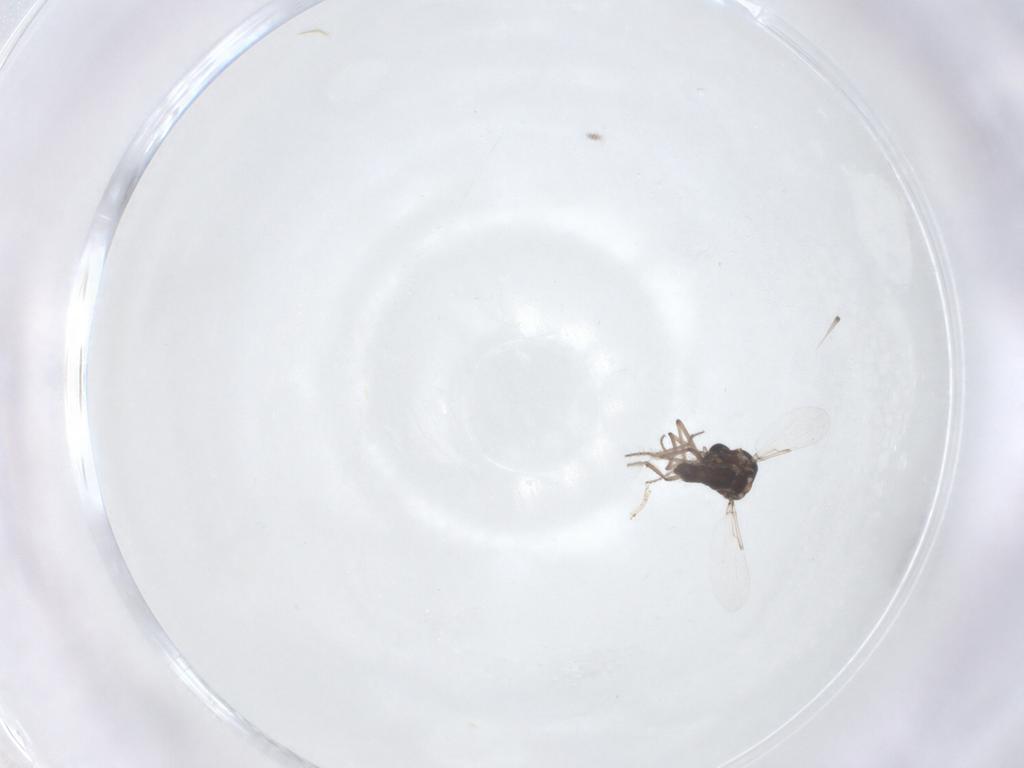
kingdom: Animalia
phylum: Arthropoda
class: Insecta
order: Diptera
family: Ceratopogonidae
